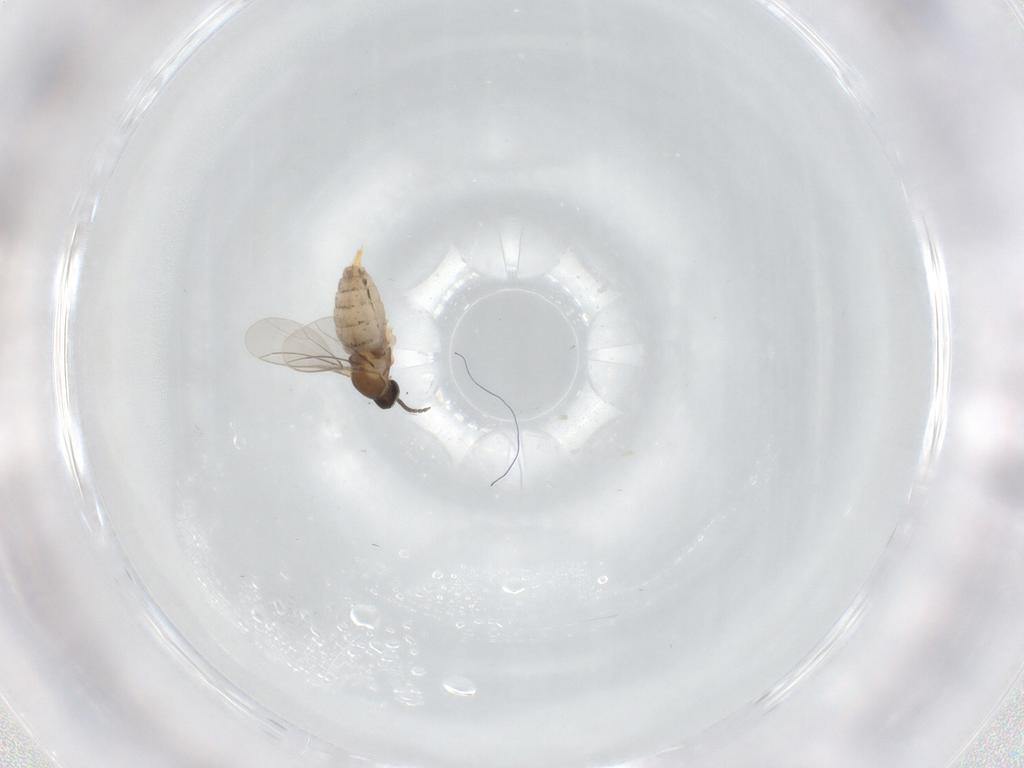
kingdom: Animalia
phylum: Arthropoda
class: Insecta
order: Diptera
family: Cecidomyiidae
